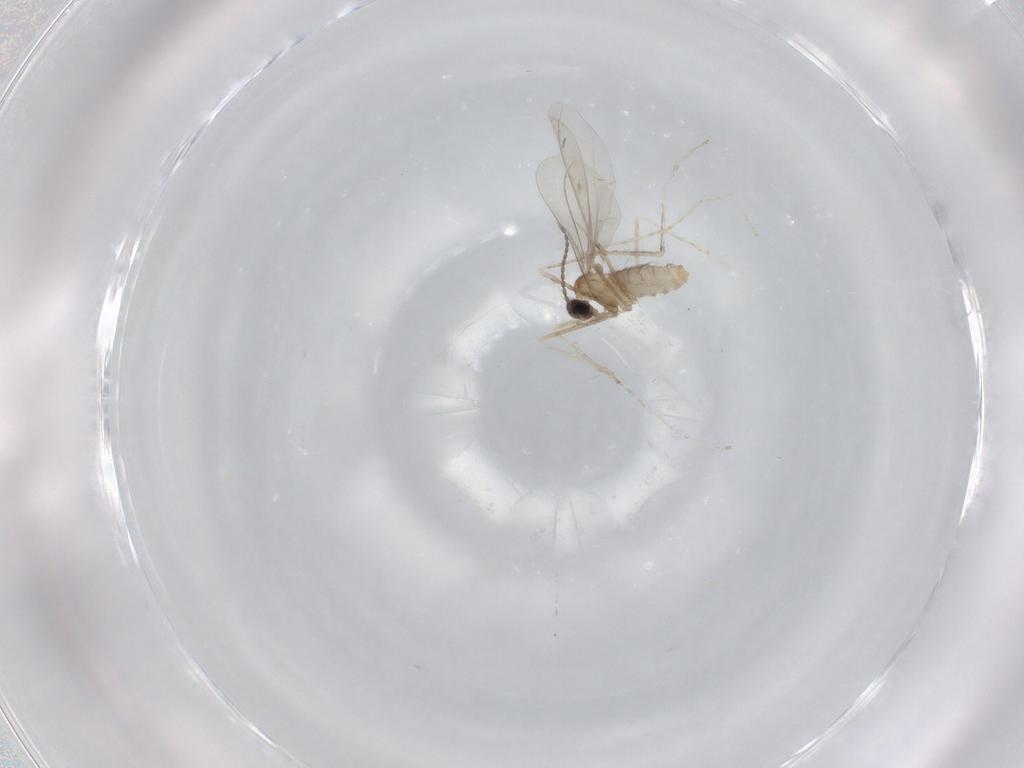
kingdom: Animalia
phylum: Arthropoda
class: Insecta
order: Diptera
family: Cecidomyiidae
